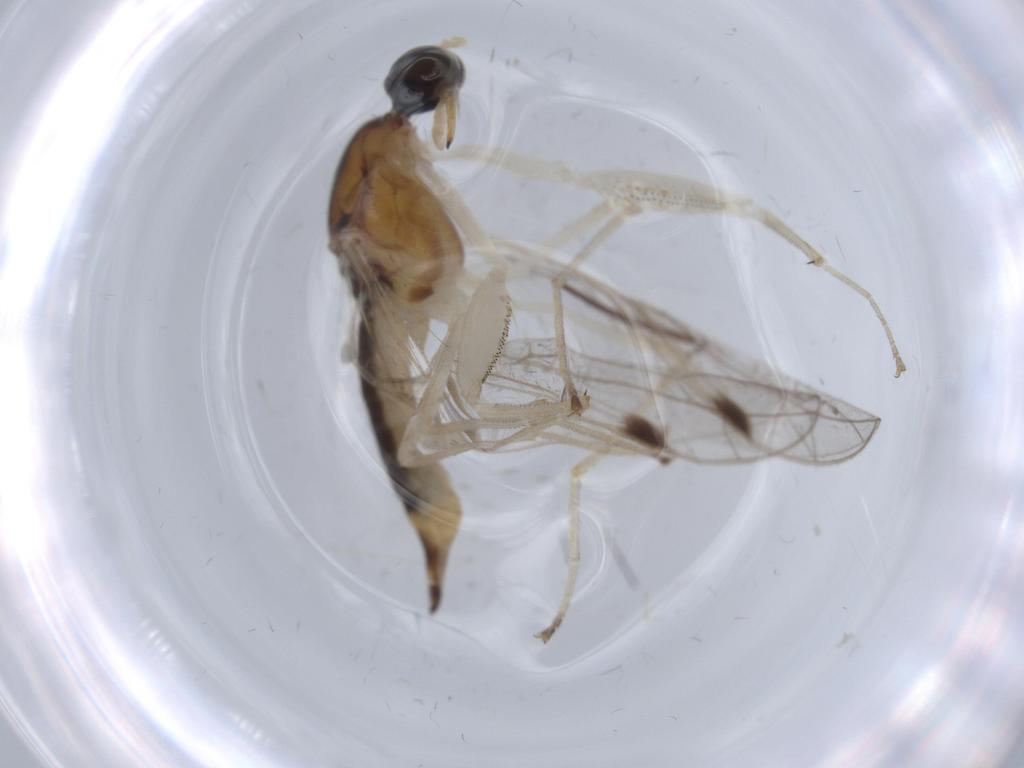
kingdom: Animalia
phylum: Arthropoda
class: Insecta
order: Diptera
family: Empididae
